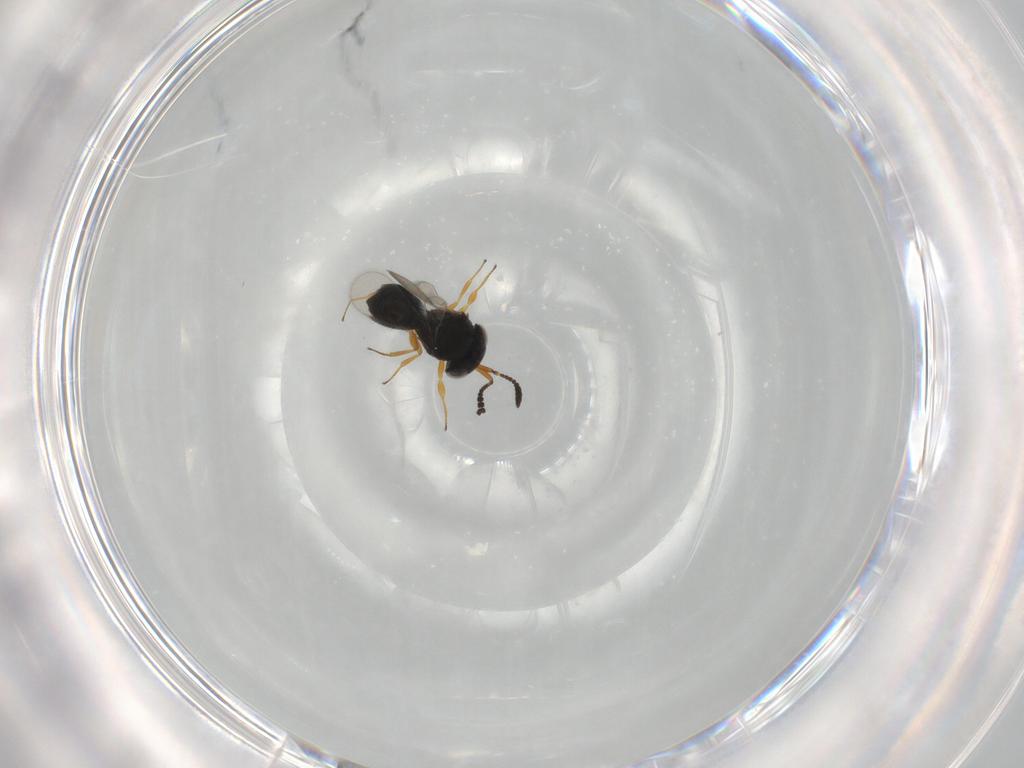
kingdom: Animalia
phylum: Arthropoda
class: Insecta
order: Hymenoptera
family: Scelionidae
